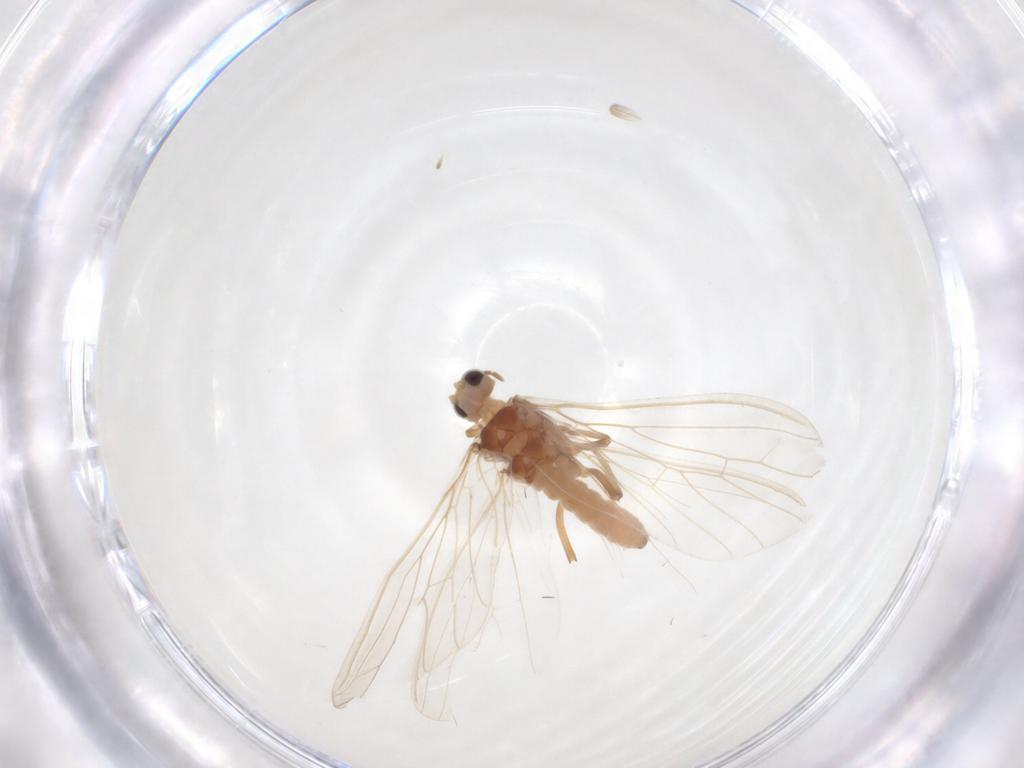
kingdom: Animalia
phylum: Arthropoda
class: Insecta
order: Neuroptera
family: Coniopterygidae
